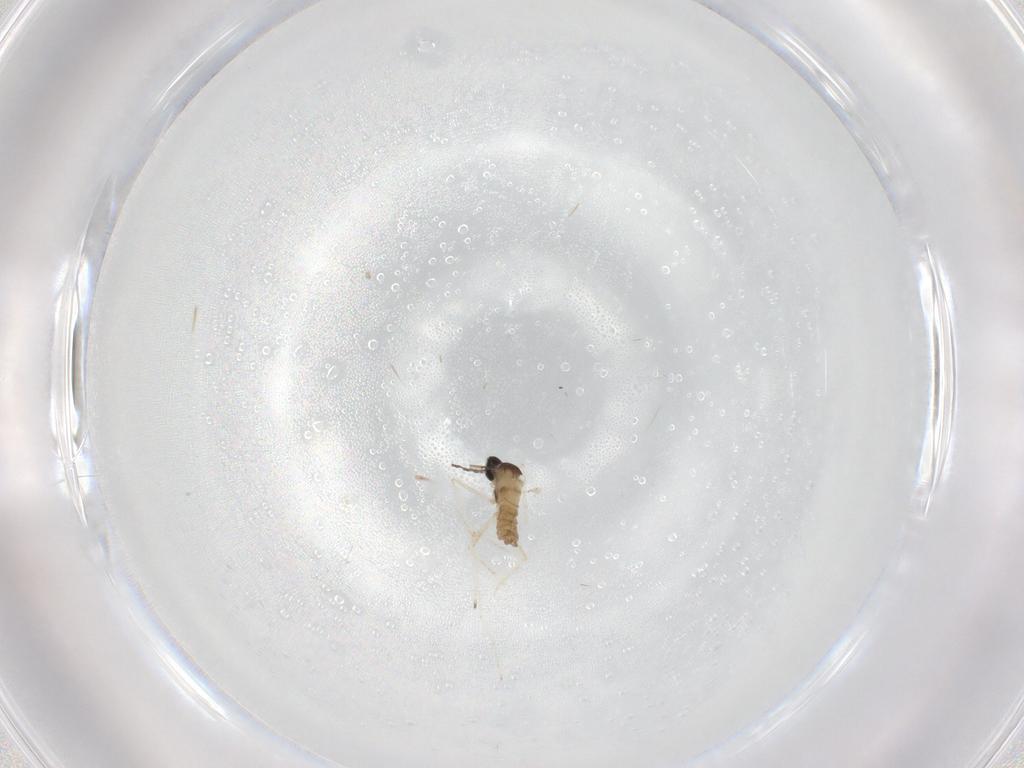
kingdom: Animalia
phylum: Arthropoda
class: Insecta
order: Diptera
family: Cecidomyiidae
